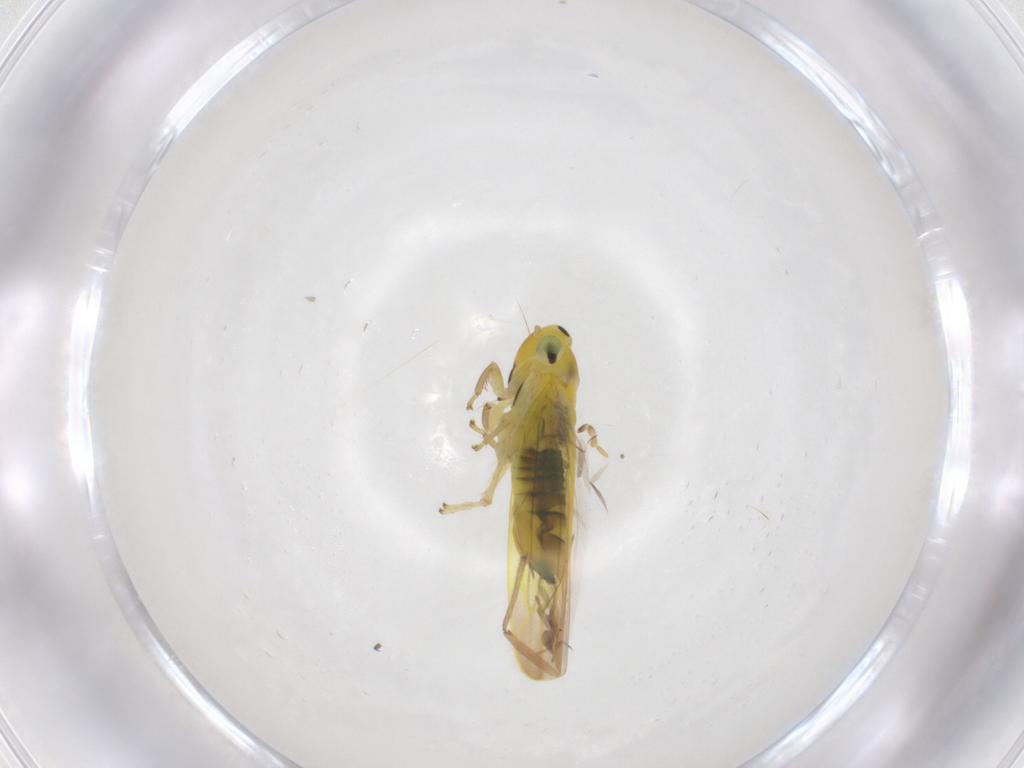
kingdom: Animalia
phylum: Arthropoda
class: Insecta
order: Hemiptera
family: Cicadellidae
